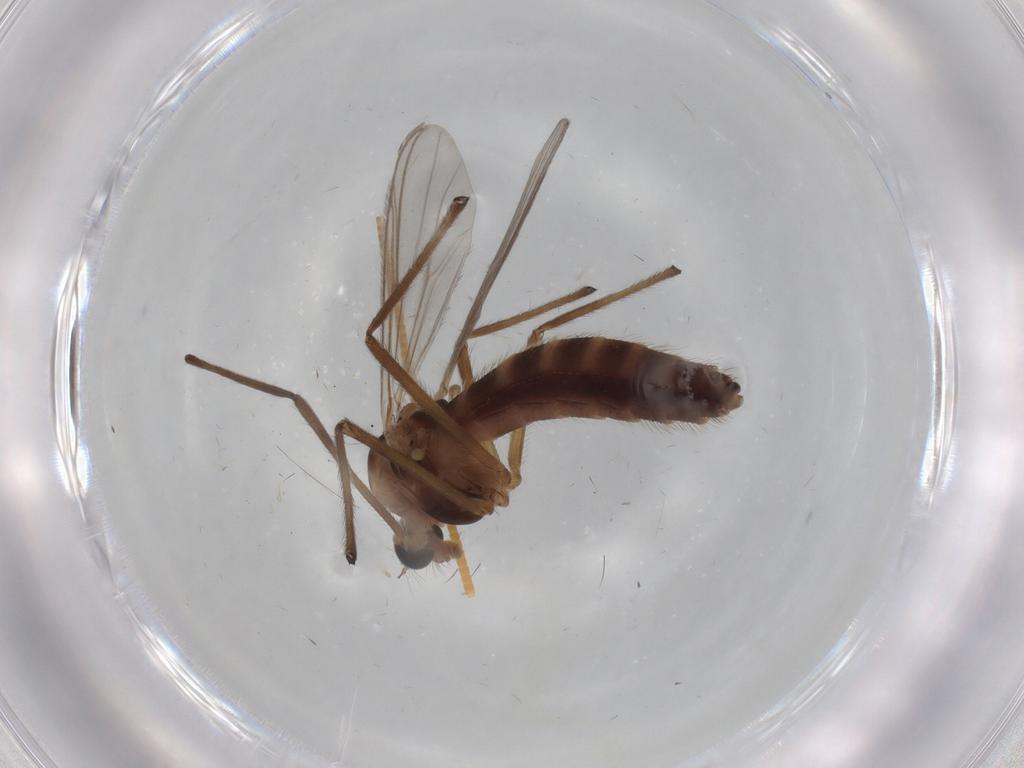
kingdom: Animalia
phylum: Arthropoda
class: Insecta
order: Diptera
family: Chironomidae
